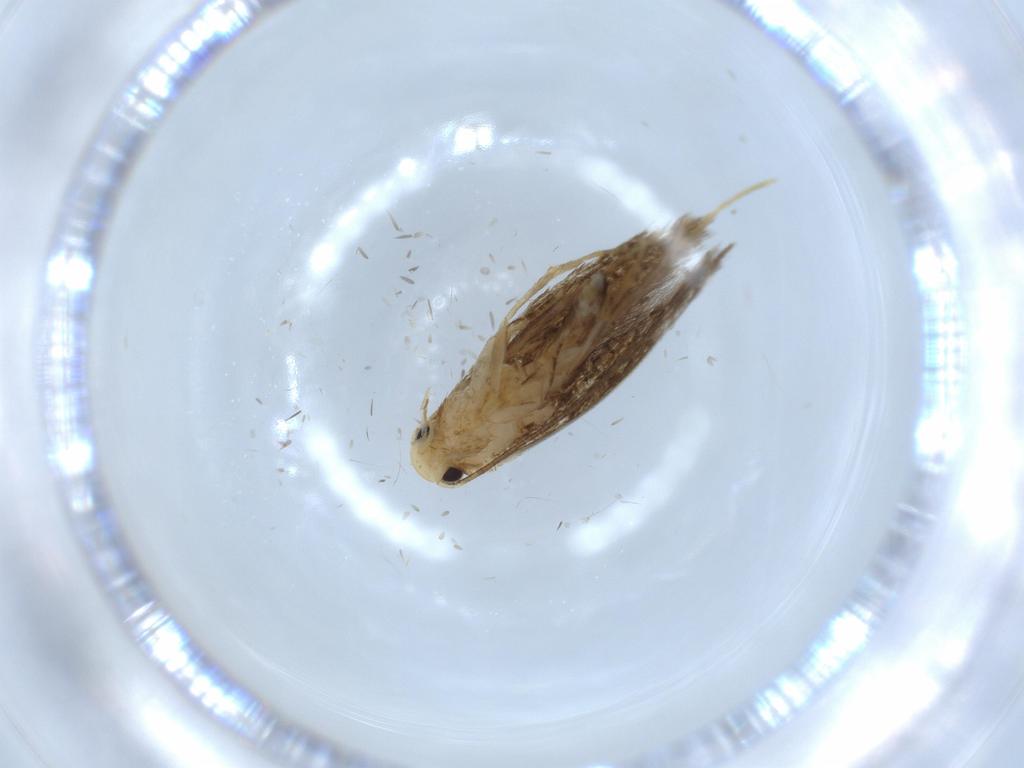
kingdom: Animalia
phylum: Arthropoda
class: Insecta
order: Lepidoptera
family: Tineidae
